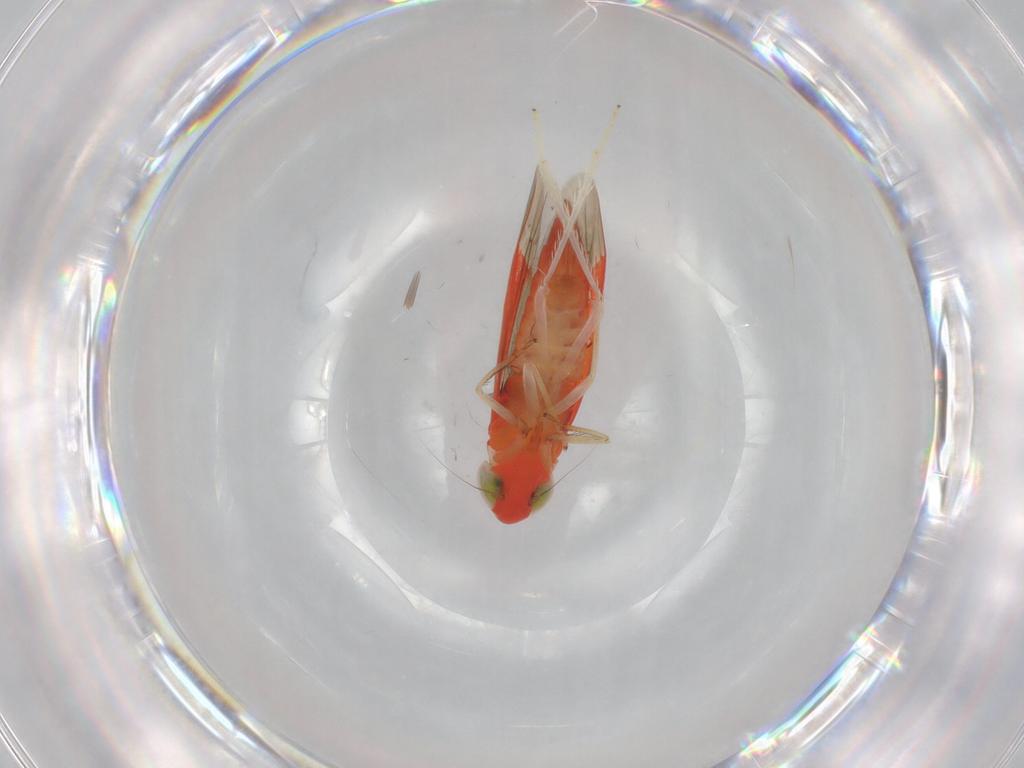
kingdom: Animalia
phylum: Arthropoda
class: Insecta
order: Hemiptera
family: Cicadellidae
